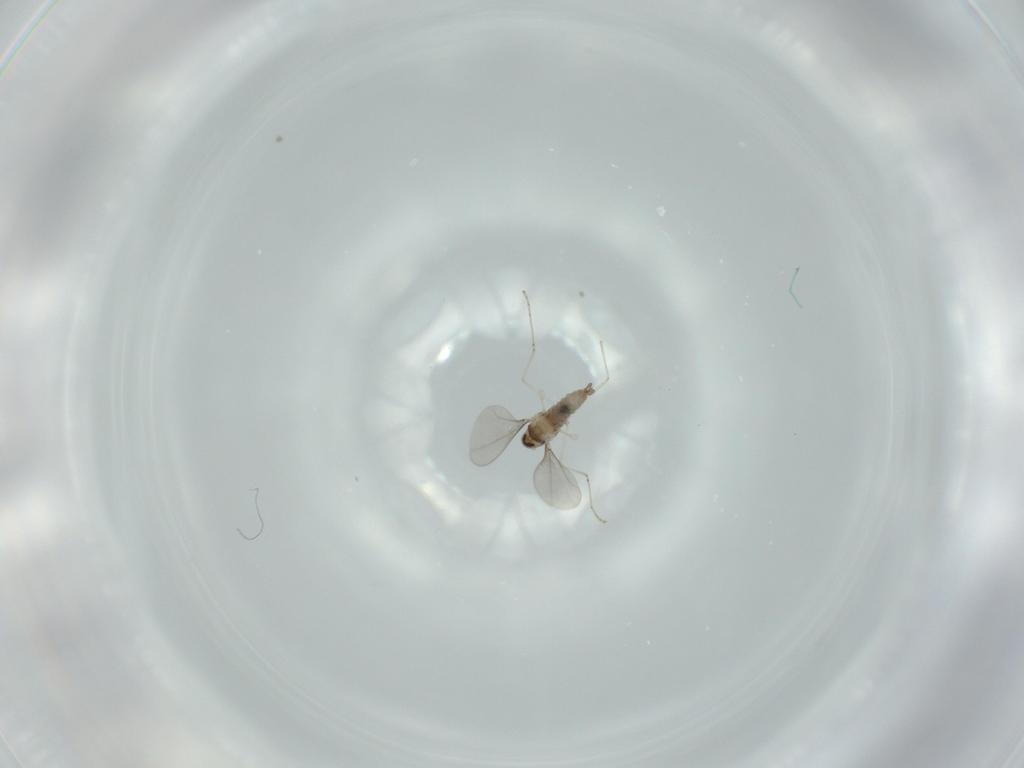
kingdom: Animalia
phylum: Arthropoda
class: Insecta
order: Diptera
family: Cecidomyiidae
